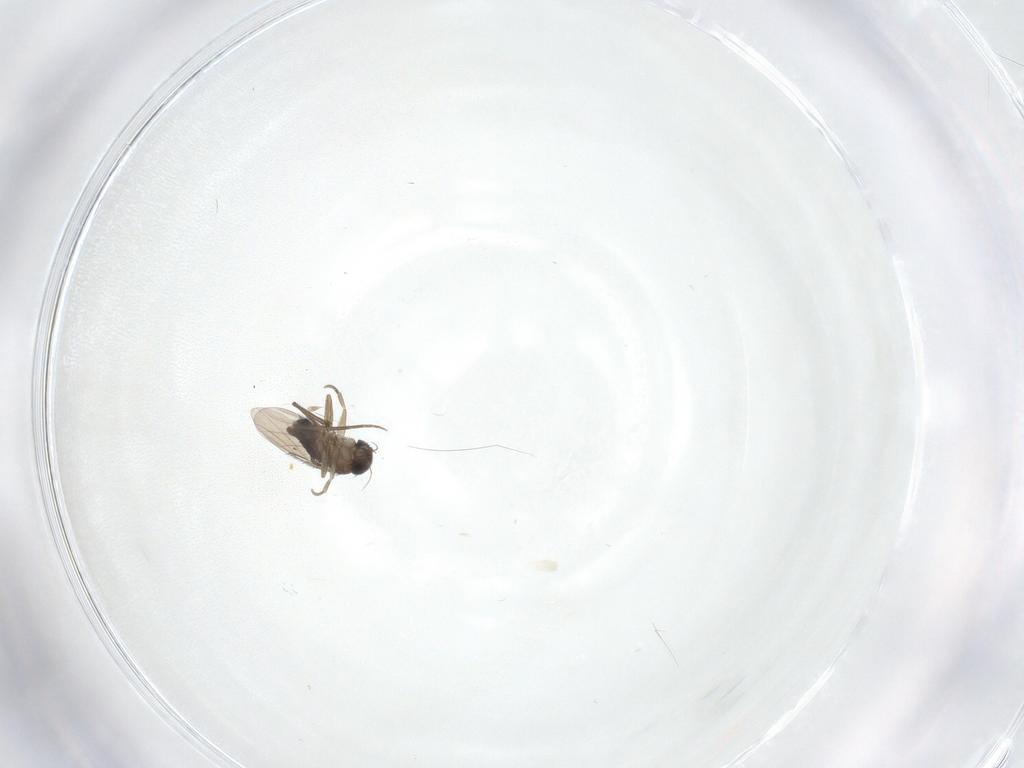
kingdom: Animalia
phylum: Arthropoda
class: Insecta
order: Diptera
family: Phoridae
